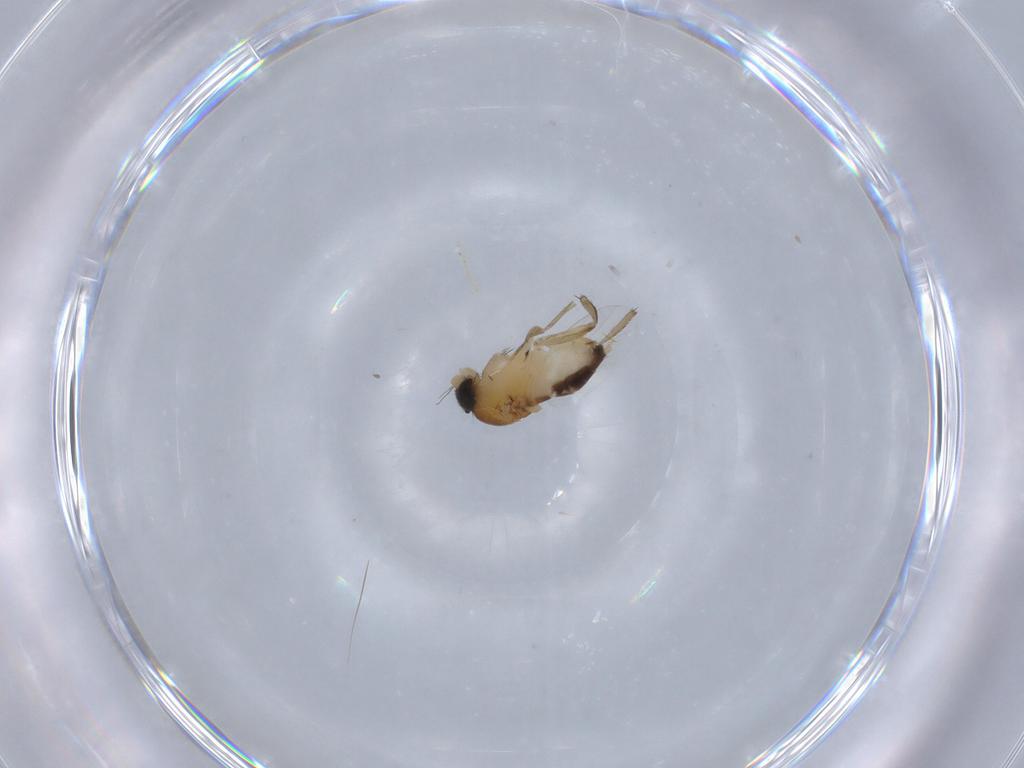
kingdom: Animalia
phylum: Arthropoda
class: Insecta
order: Diptera
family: Phoridae
